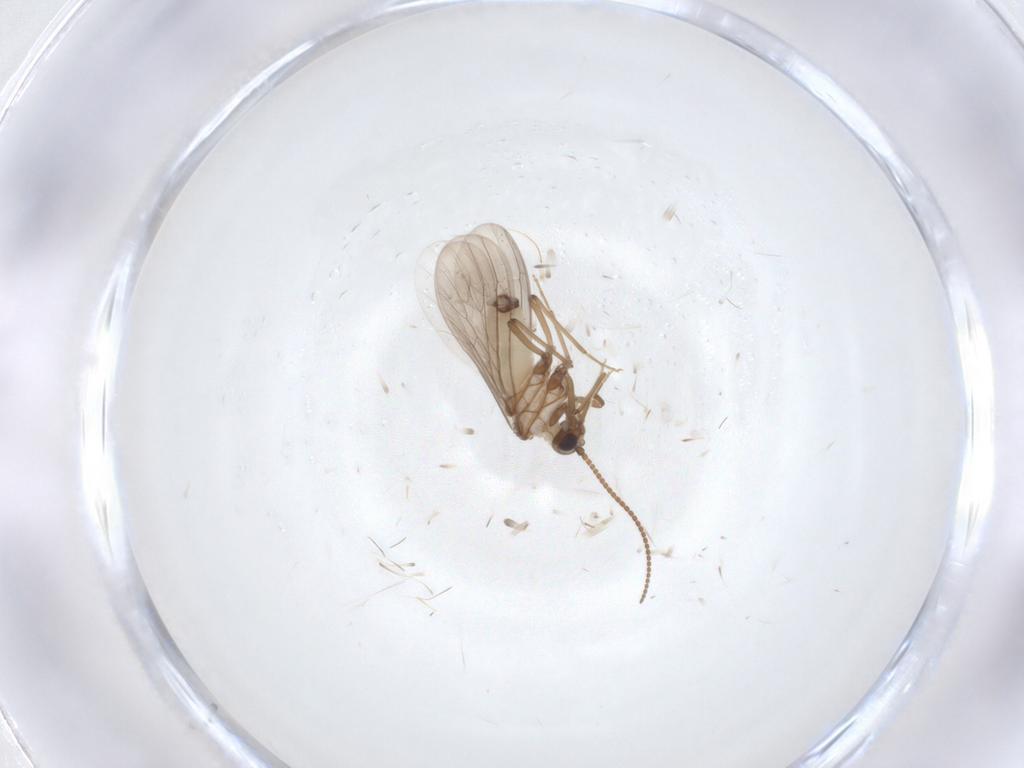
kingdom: Animalia
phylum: Arthropoda
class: Insecta
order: Neuroptera
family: Coniopterygidae
